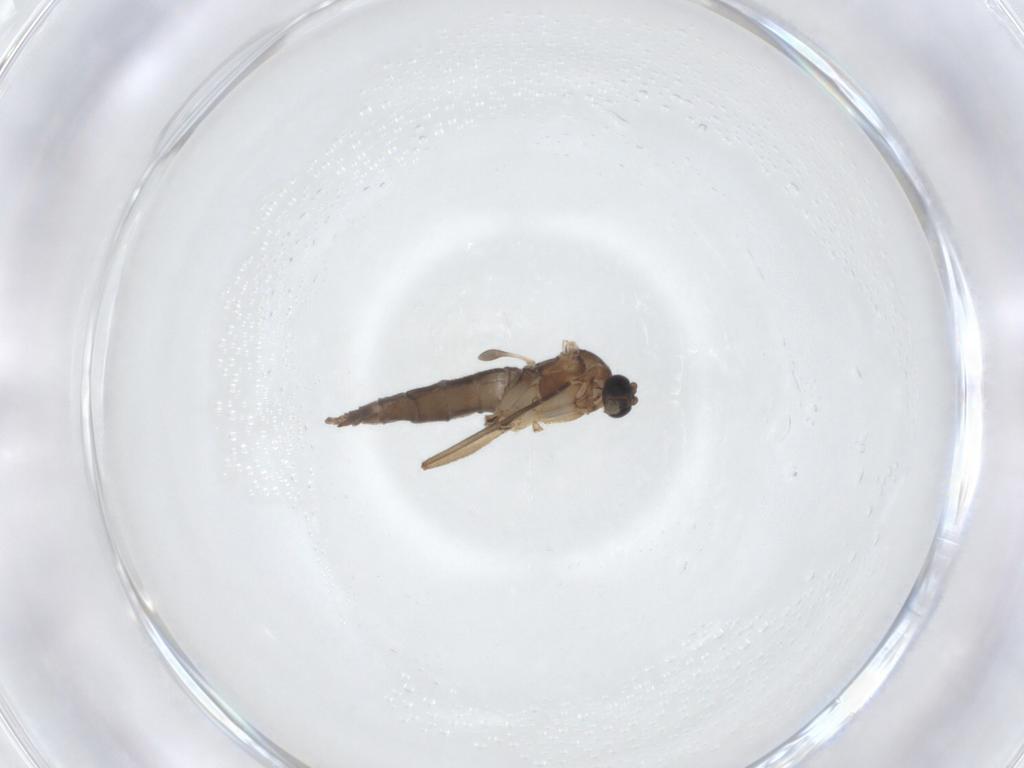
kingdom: Animalia
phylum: Arthropoda
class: Insecta
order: Diptera
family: Sciaridae
